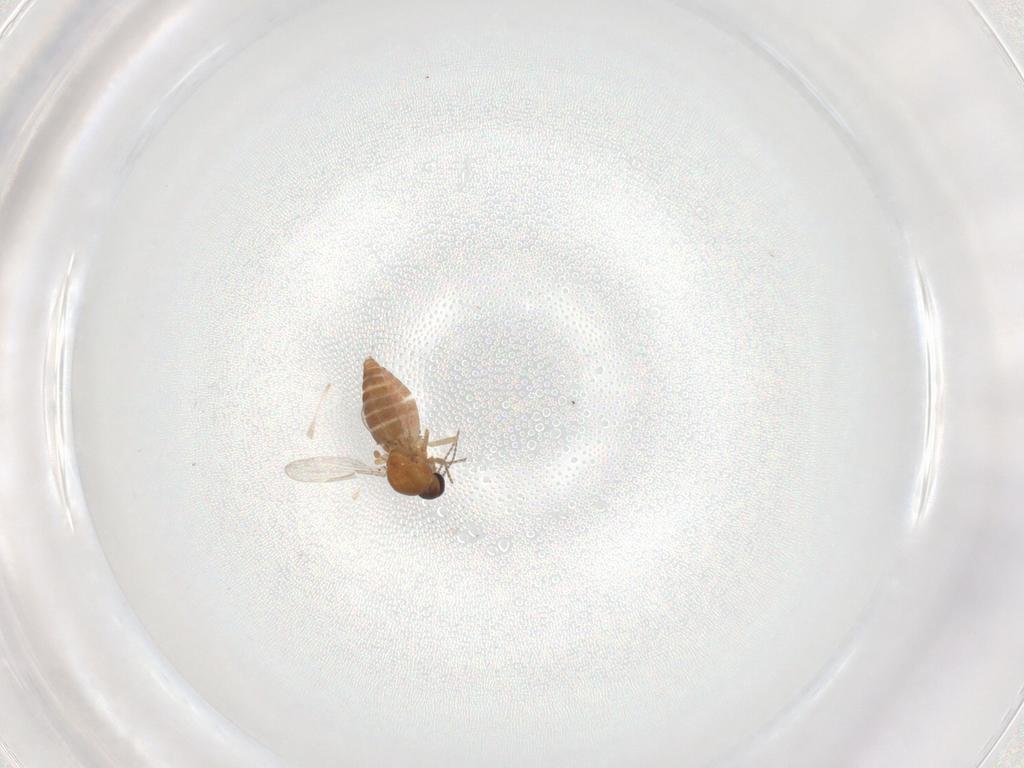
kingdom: Animalia
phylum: Arthropoda
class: Insecta
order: Diptera
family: Ceratopogonidae
